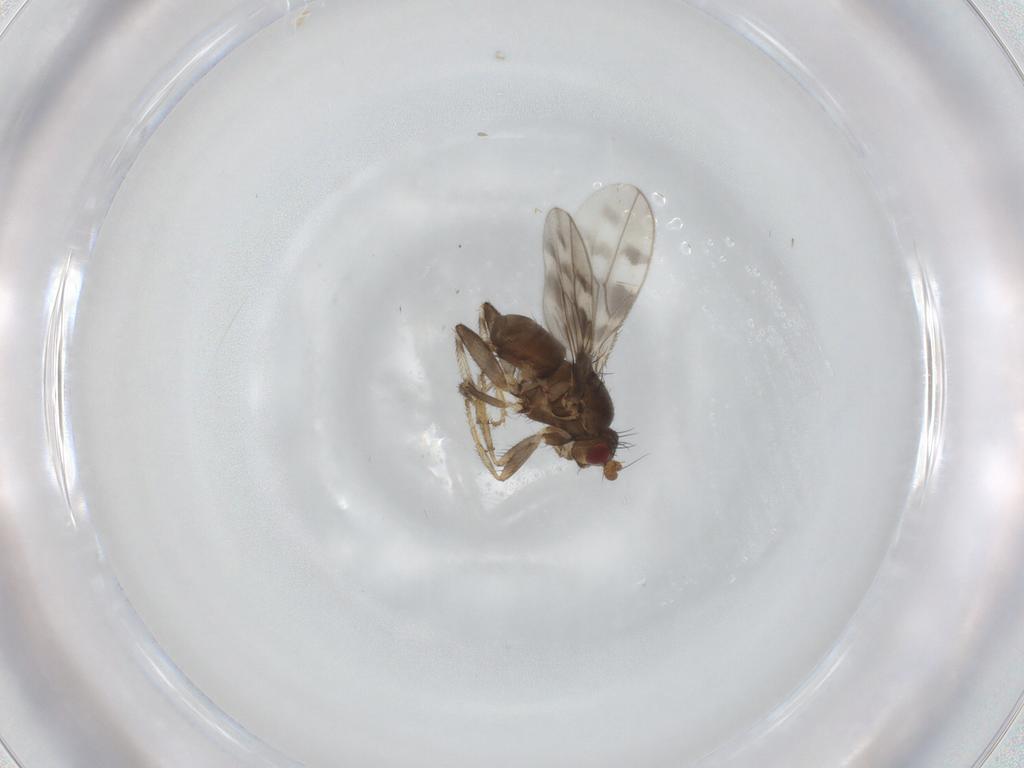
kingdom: Animalia
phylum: Arthropoda
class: Insecta
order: Diptera
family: Sphaeroceridae
